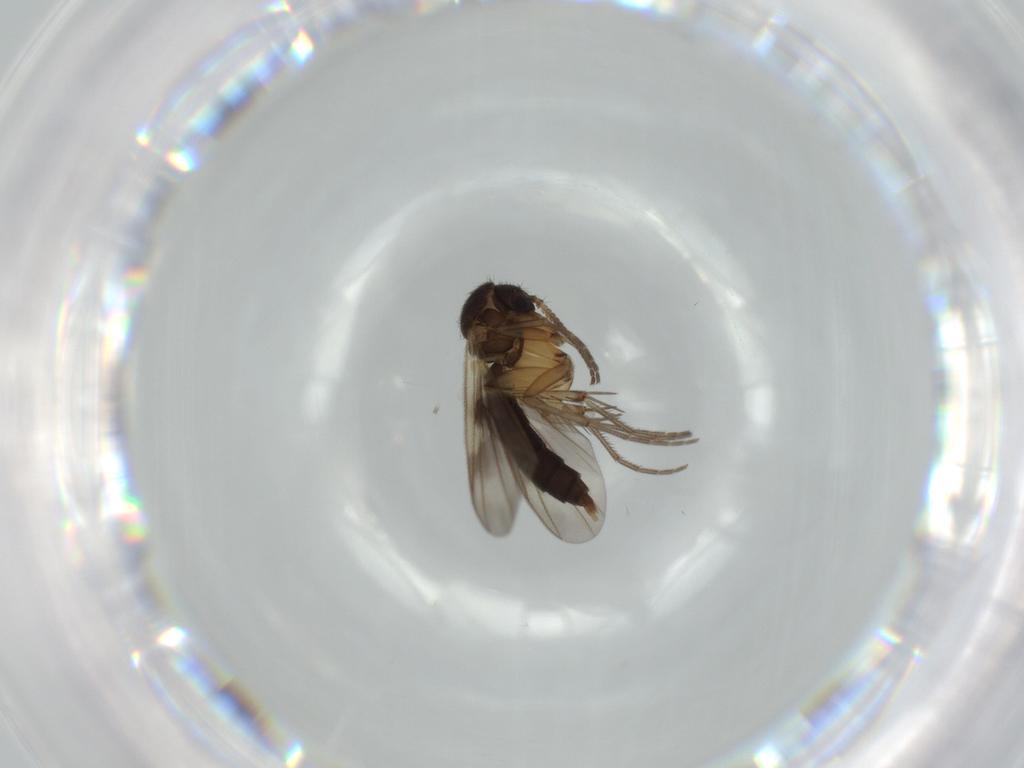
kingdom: Animalia
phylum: Arthropoda
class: Insecta
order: Diptera
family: Phoridae
